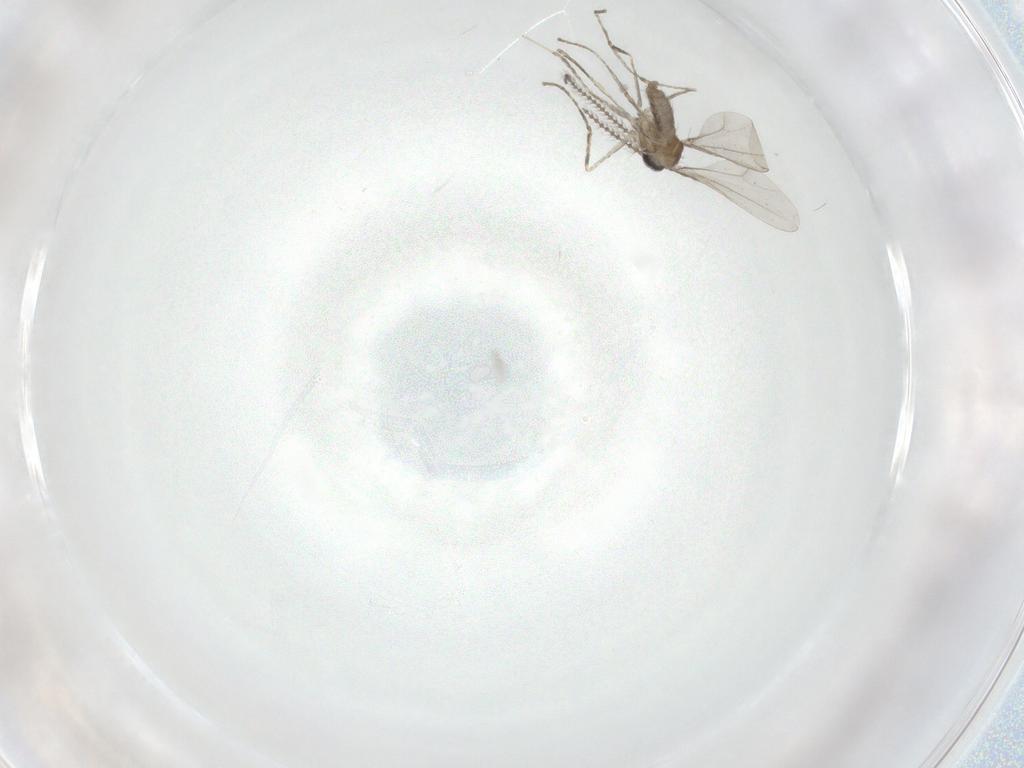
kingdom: Animalia
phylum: Arthropoda
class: Insecta
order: Diptera
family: Cecidomyiidae
